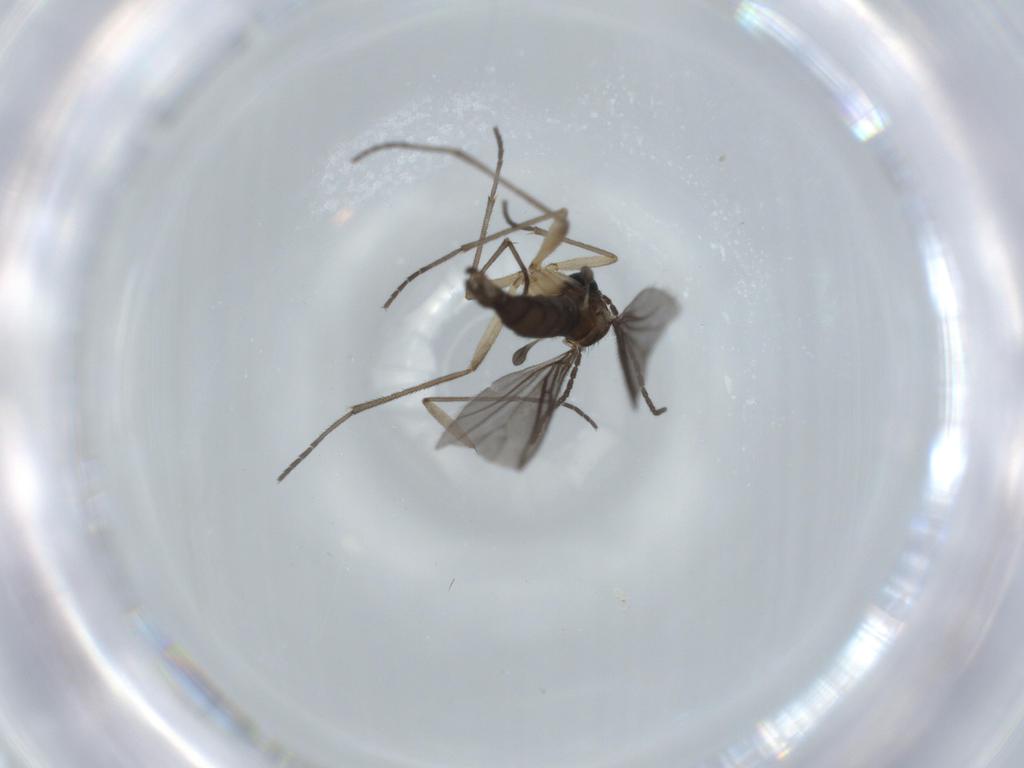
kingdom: Animalia
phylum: Arthropoda
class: Insecta
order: Diptera
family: Sciaridae
